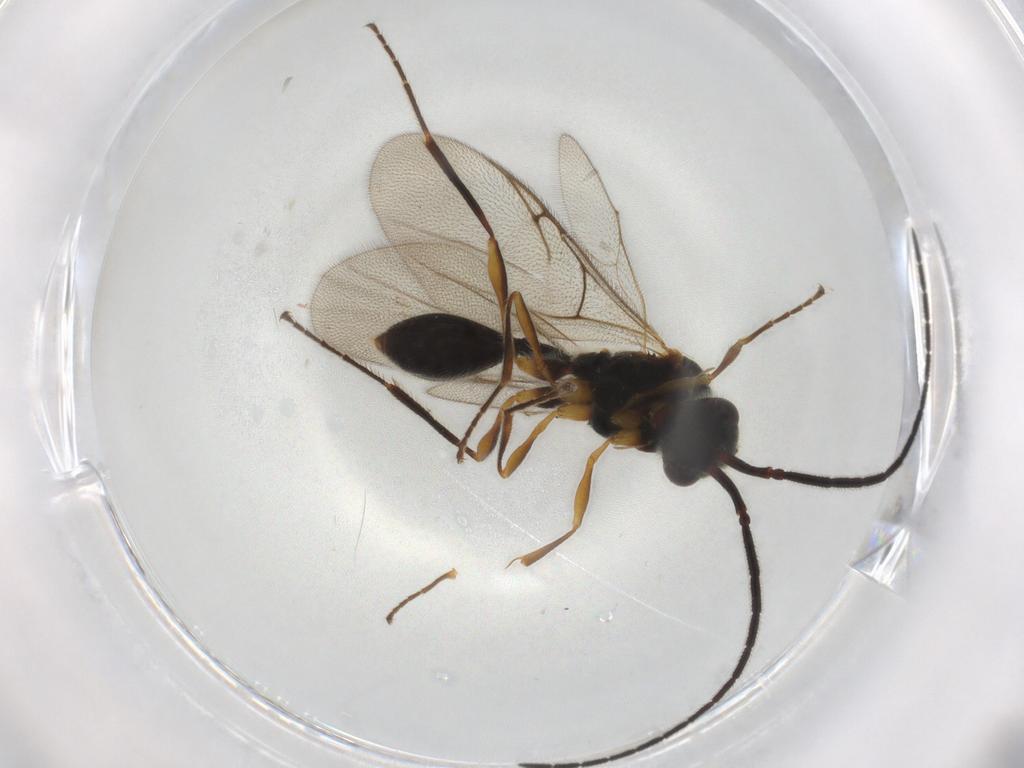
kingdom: Animalia
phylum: Arthropoda
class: Insecta
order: Hymenoptera
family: Diapriidae
